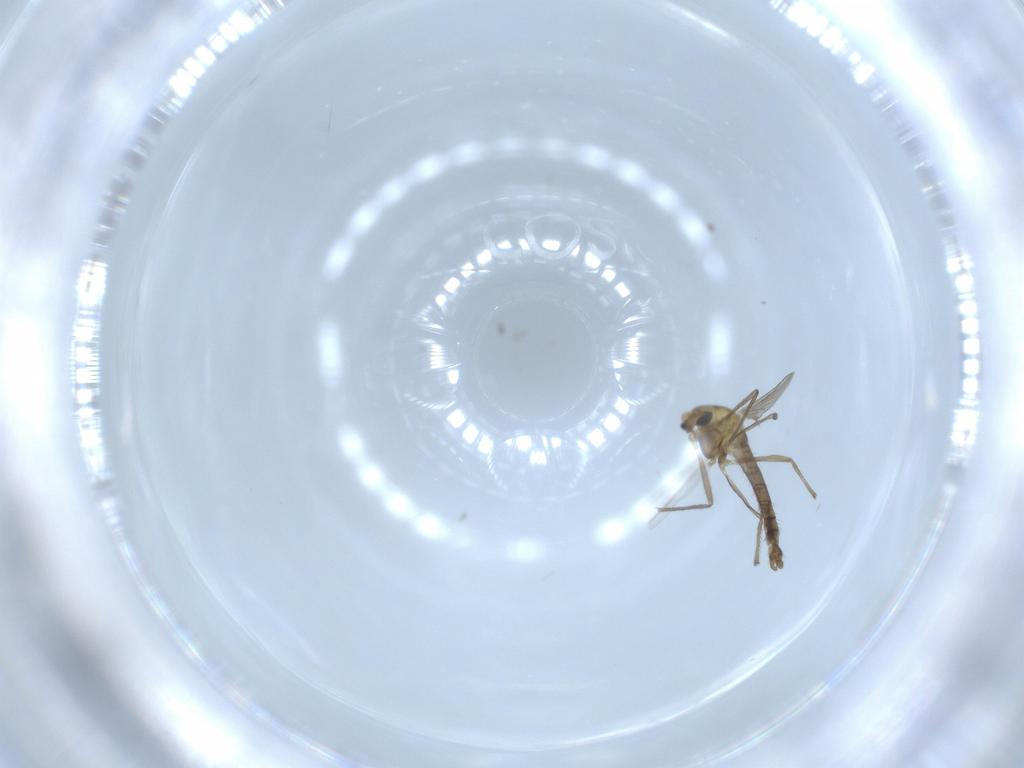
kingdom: Animalia
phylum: Arthropoda
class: Insecta
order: Diptera
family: Chironomidae
